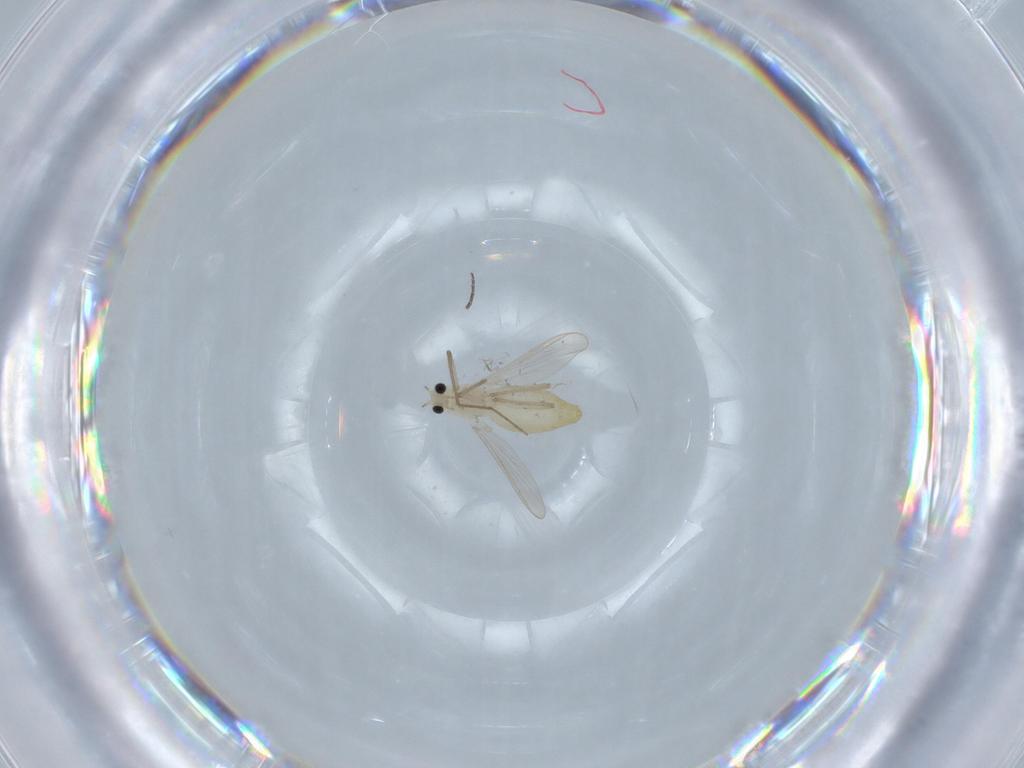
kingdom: Animalia
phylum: Arthropoda
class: Insecta
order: Diptera
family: Chironomidae
